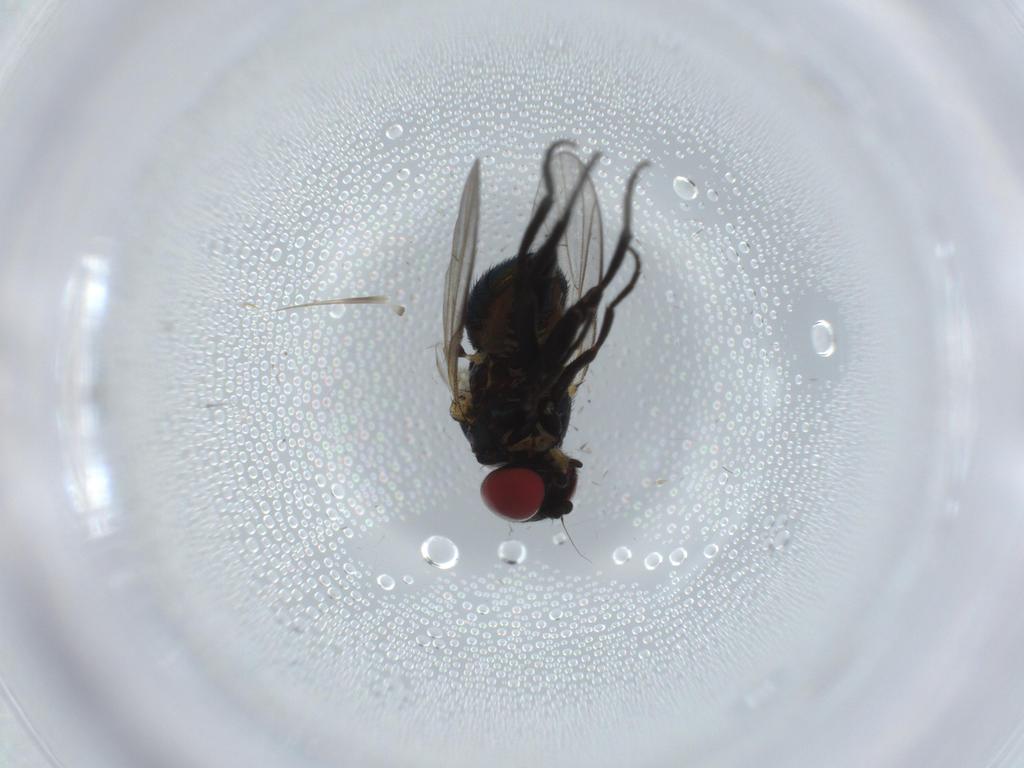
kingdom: Animalia
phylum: Arthropoda
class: Insecta
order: Diptera
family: Agromyzidae
